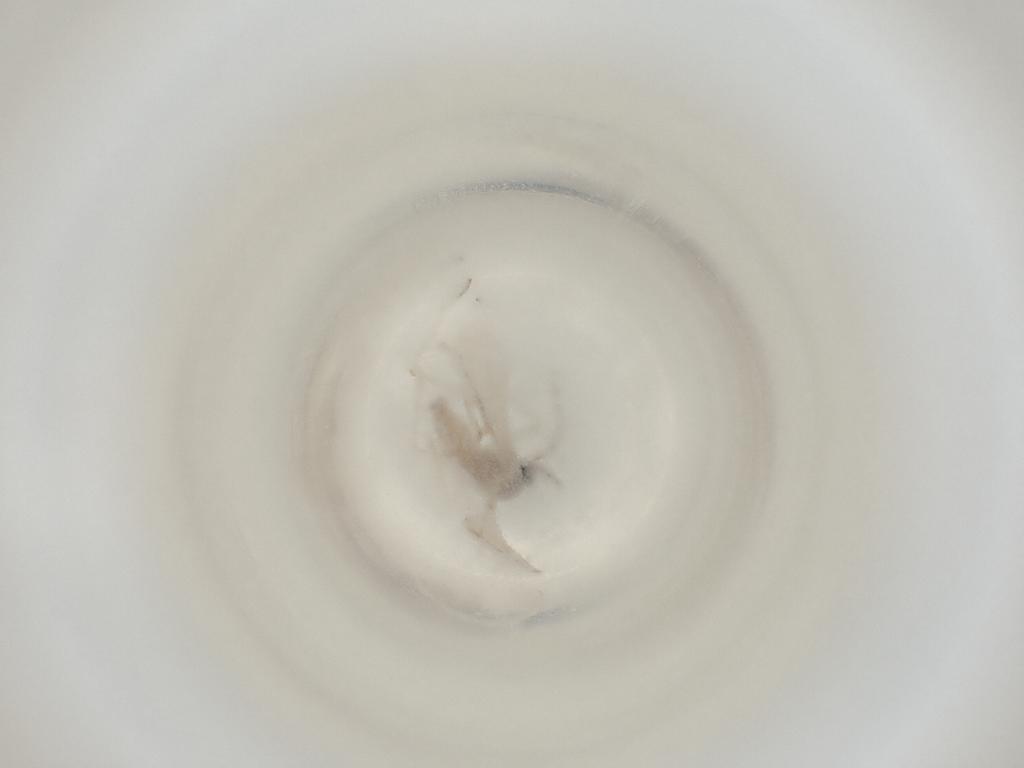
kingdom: Animalia
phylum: Arthropoda
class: Insecta
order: Diptera
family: Cecidomyiidae
